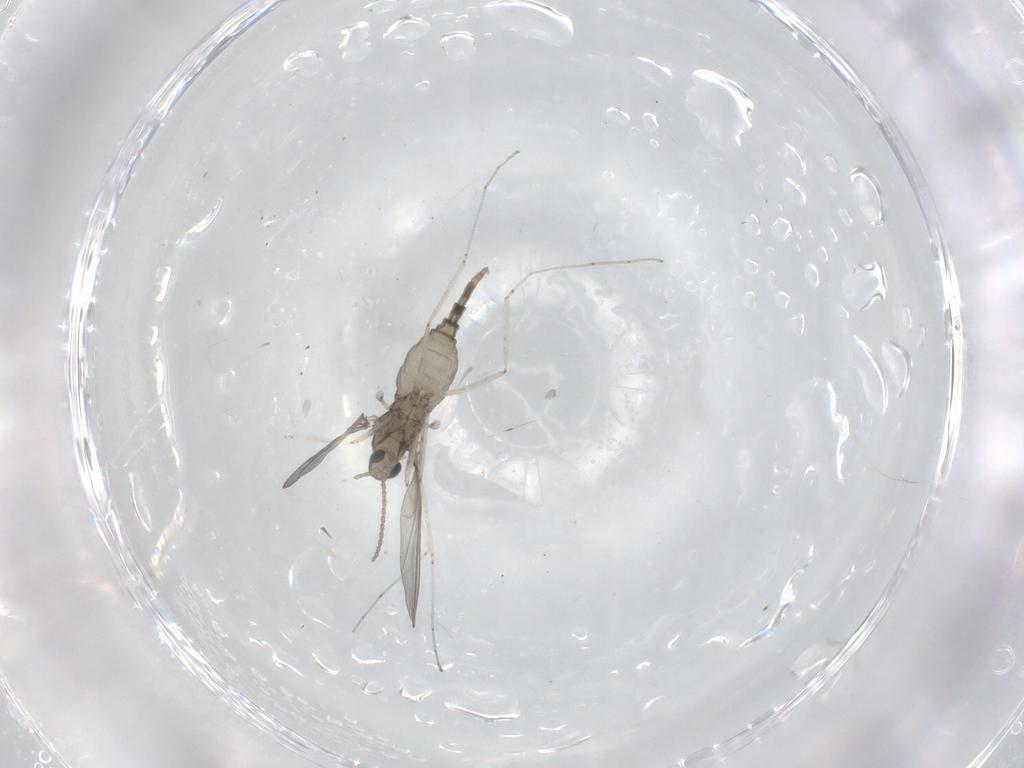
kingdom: Animalia
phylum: Arthropoda
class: Insecta
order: Diptera
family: Cecidomyiidae
